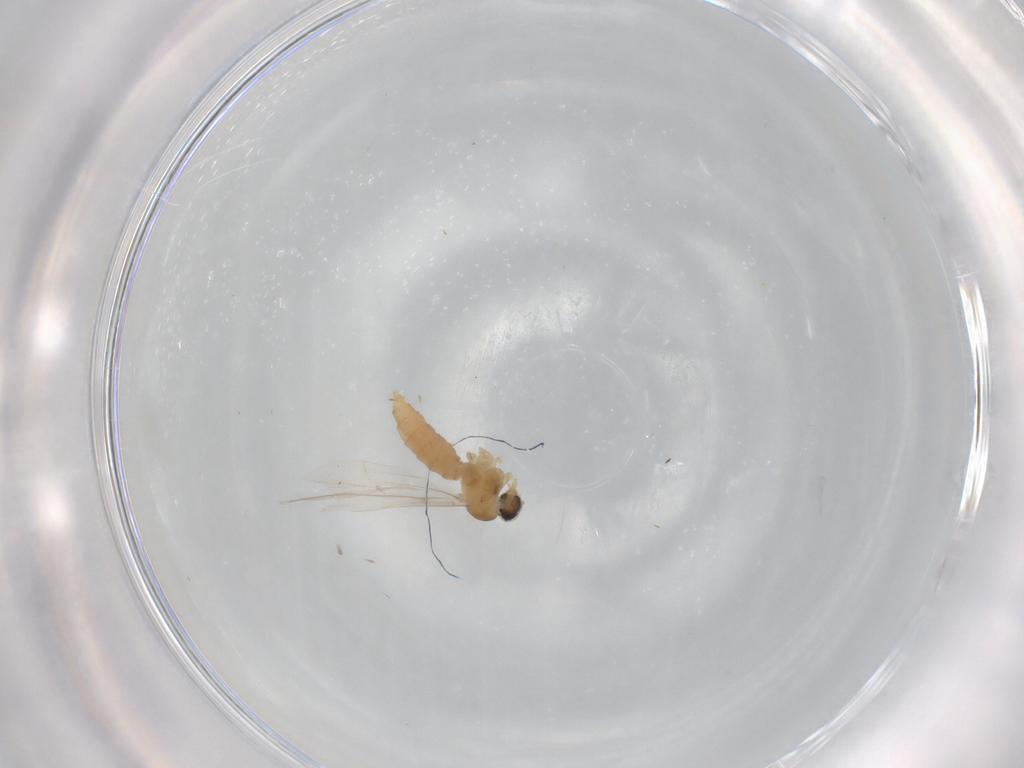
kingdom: Animalia
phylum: Arthropoda
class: Insecta
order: Diptera
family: Cecidomyiidae
